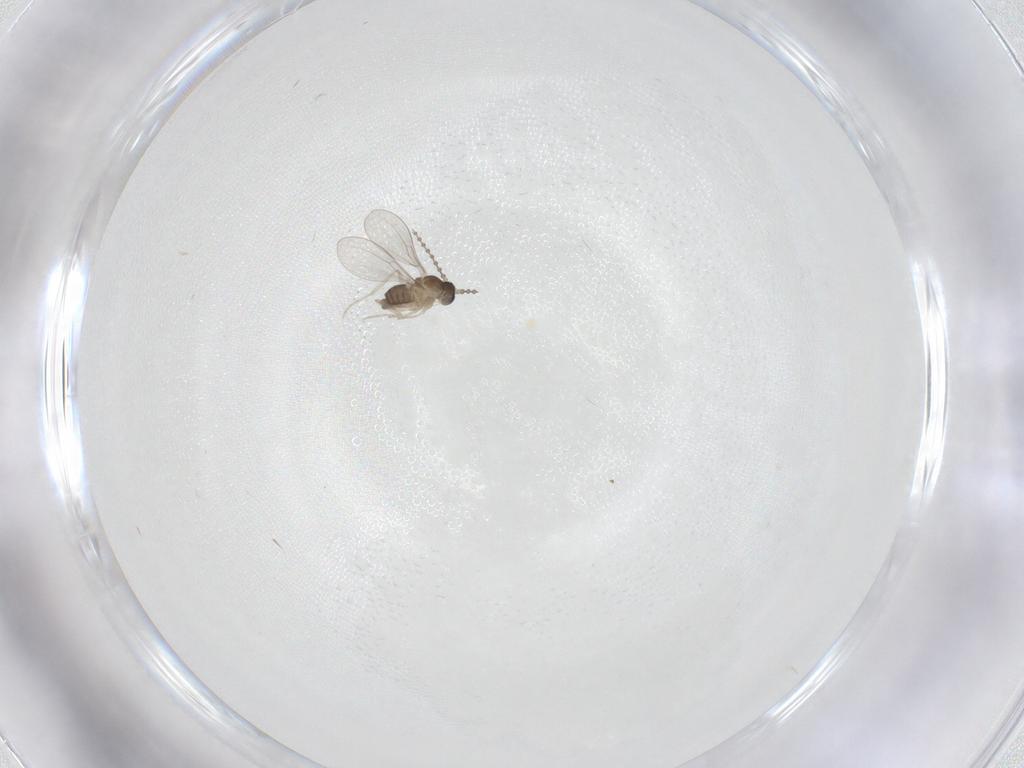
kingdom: Animalia
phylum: Arthropoda
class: Insecta
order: Diptera
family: Cecidomyiidae
